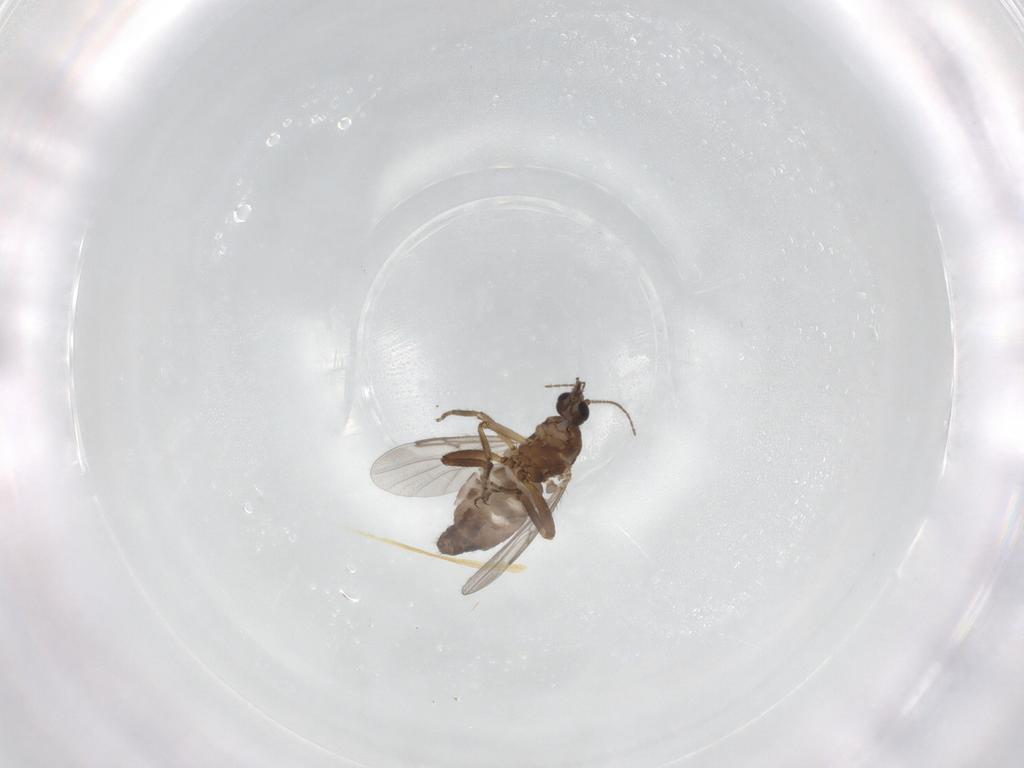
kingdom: Animalia
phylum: Arthropoda
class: Insecta
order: Diptera
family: Ceratopogonidae
